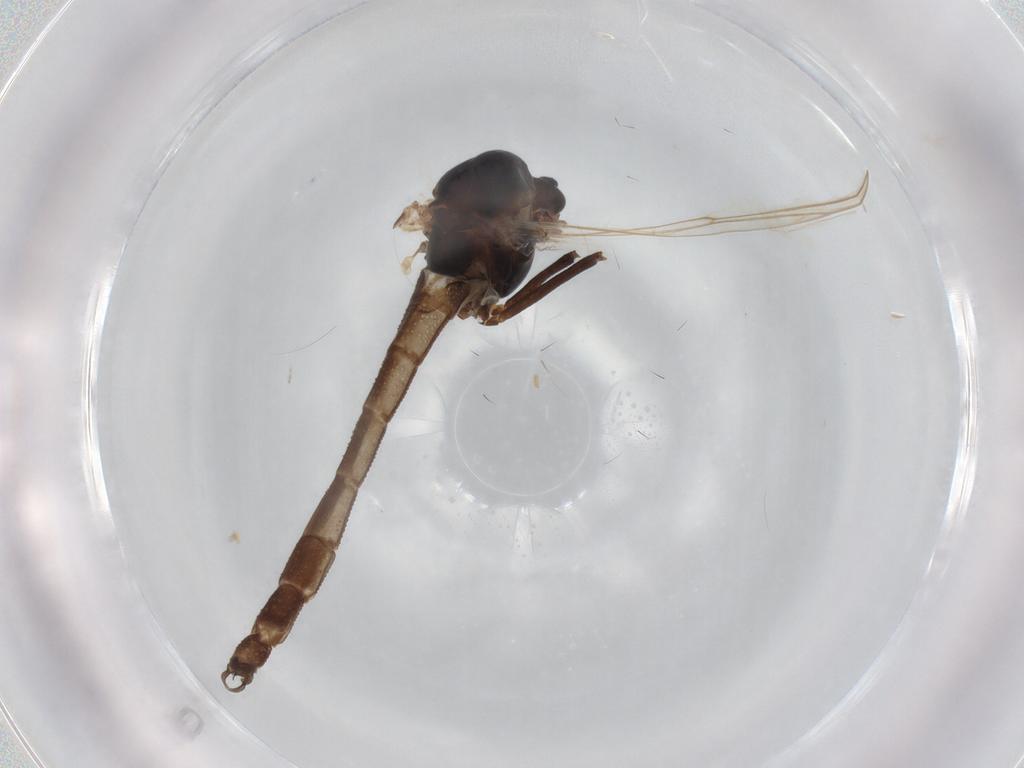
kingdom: Animalia
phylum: Arthropoda
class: Insecta
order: Diptera
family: Chironomidae
